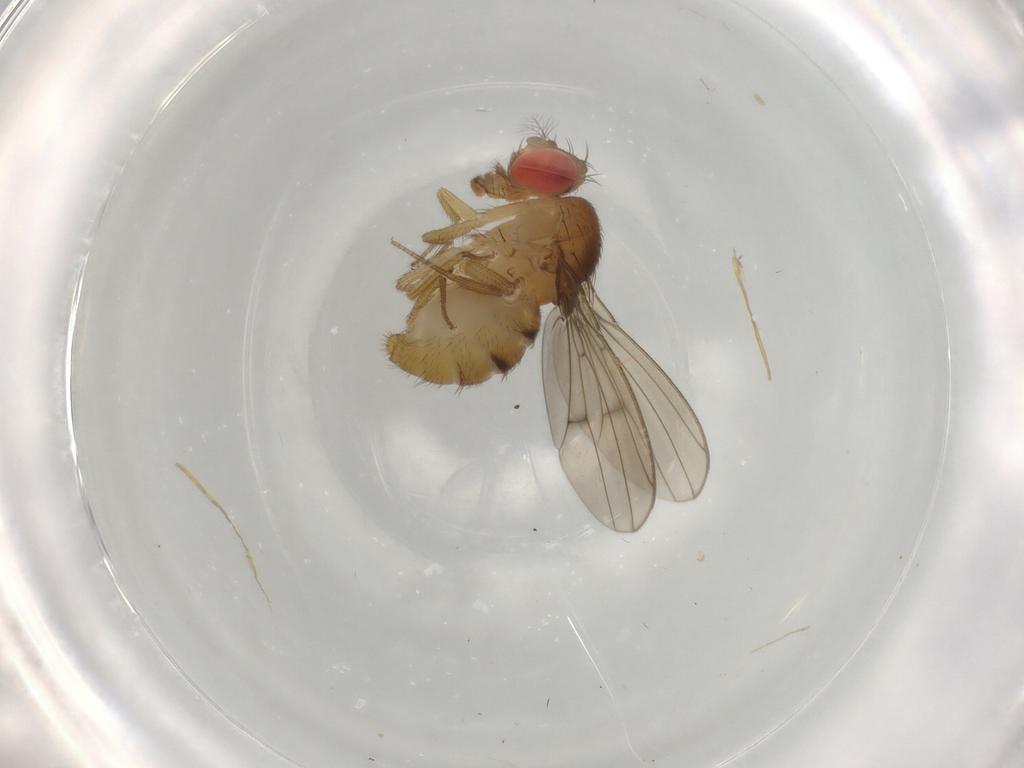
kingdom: Animalia
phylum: Arthropoda
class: Insecta
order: Diptera
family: Ceratopogonidae
